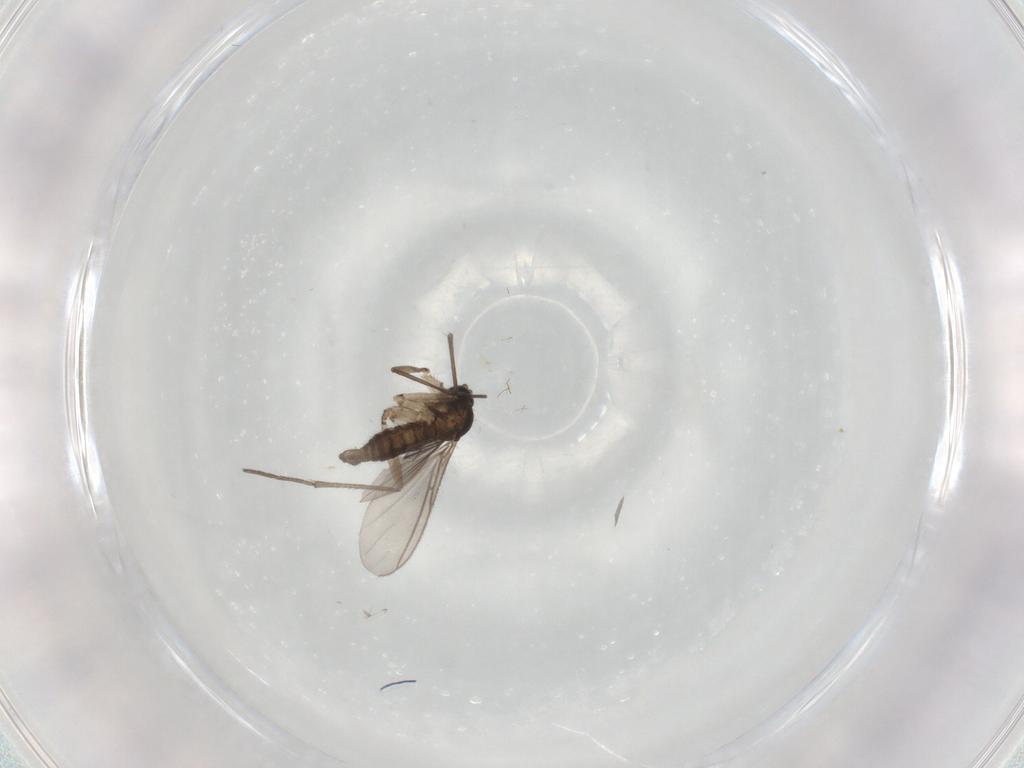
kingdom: Animalia
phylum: Arthropoda
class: Insecta
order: Diptera
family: Sciaridae
